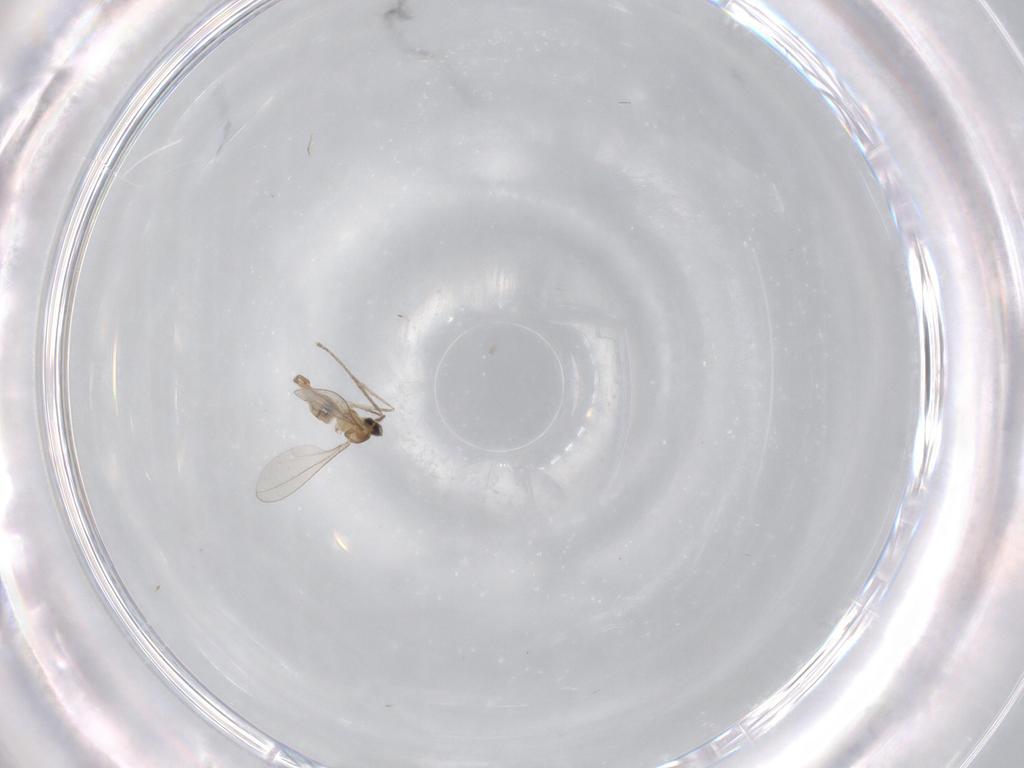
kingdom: Animalia
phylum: Arthropoda
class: Insecta
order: Diptera
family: Cecidomyiidae
